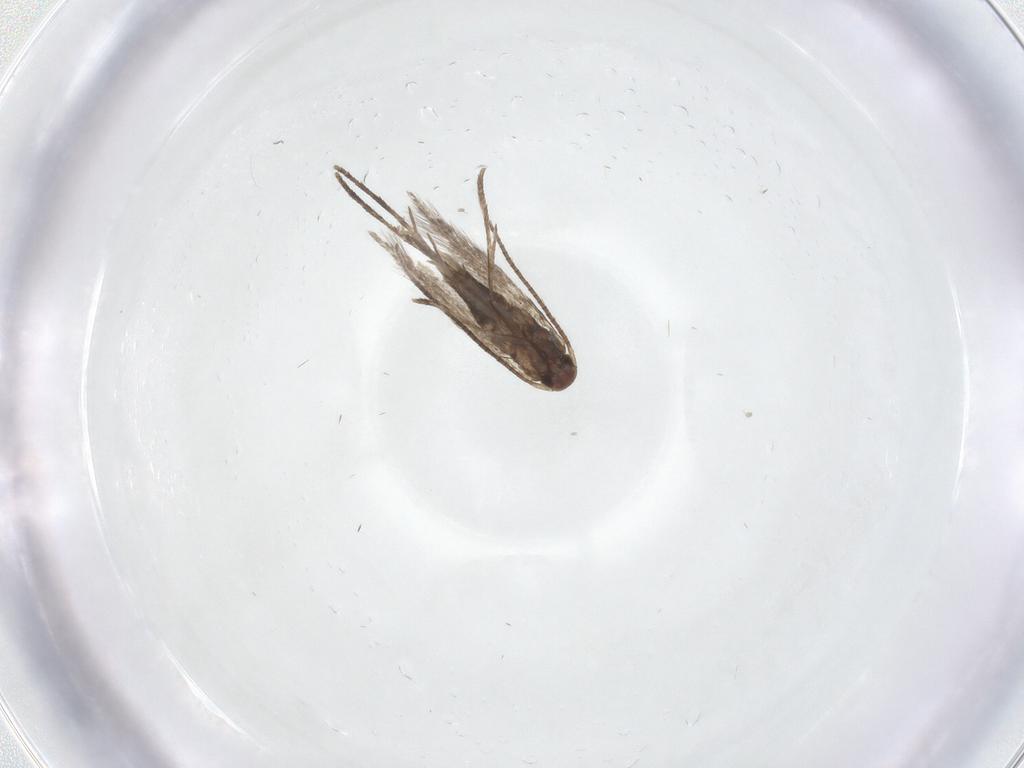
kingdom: Animalia
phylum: Arthropoda
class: Insecta
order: Lepidoptera
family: Gracillariidae
